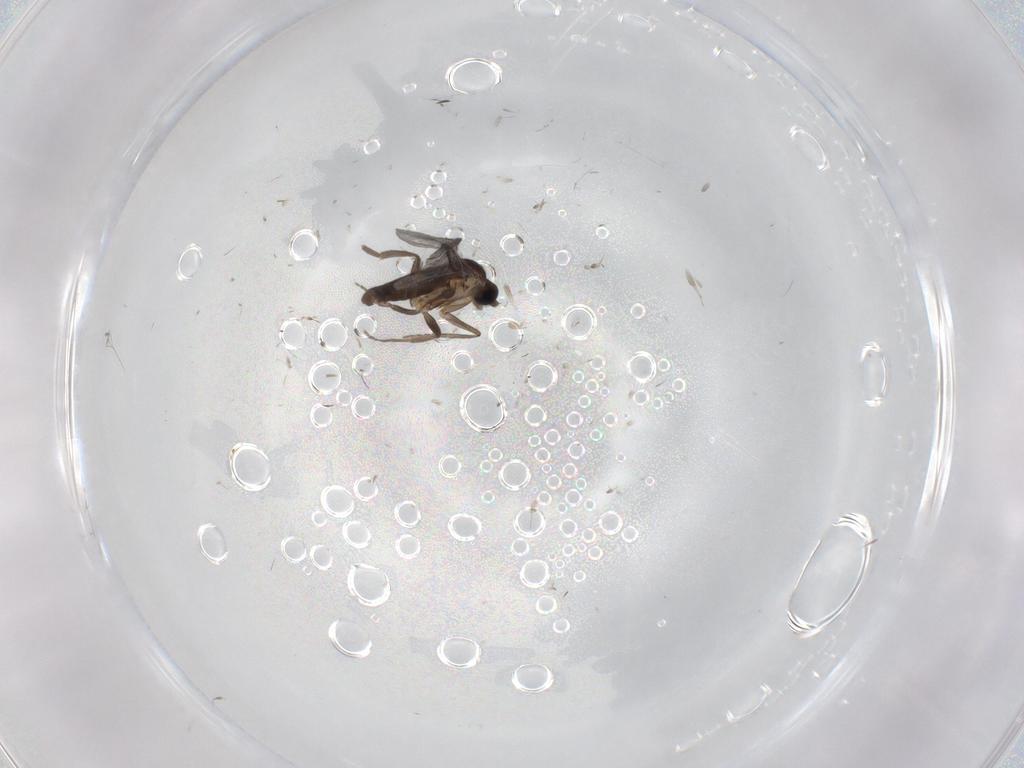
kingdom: Animalia
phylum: Arthropoda
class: Insecta
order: Diptera
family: Phoridae
